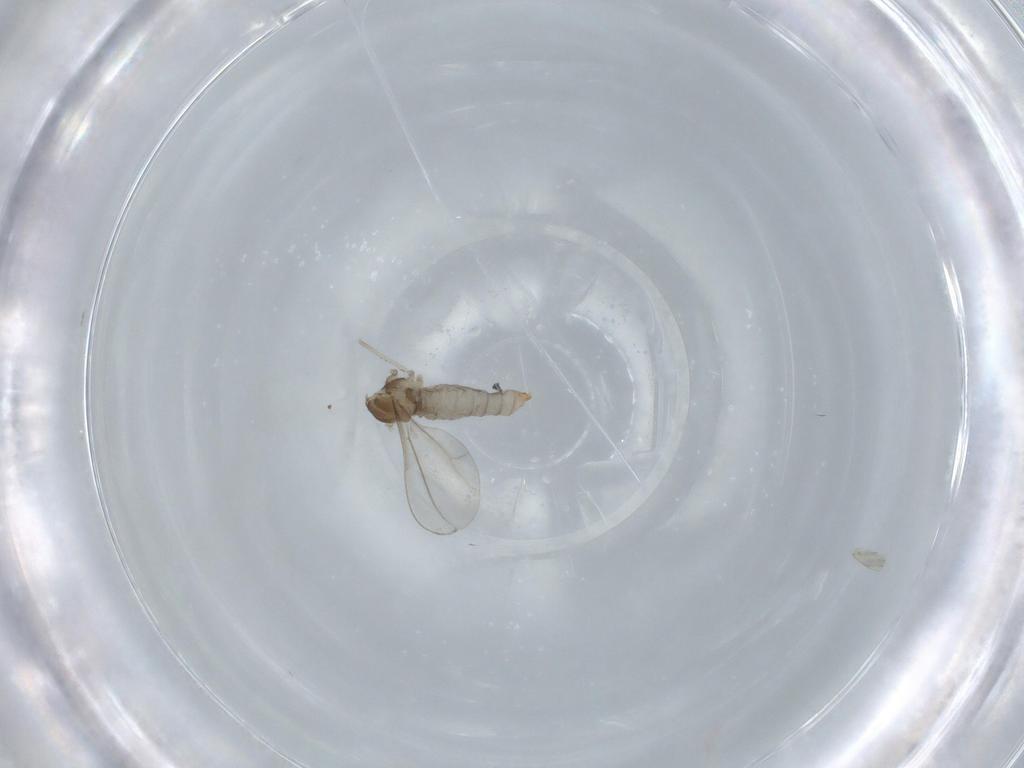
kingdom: Animalia
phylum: Arthropoda
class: Insecta
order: Diptera
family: Cecidomyiidae
